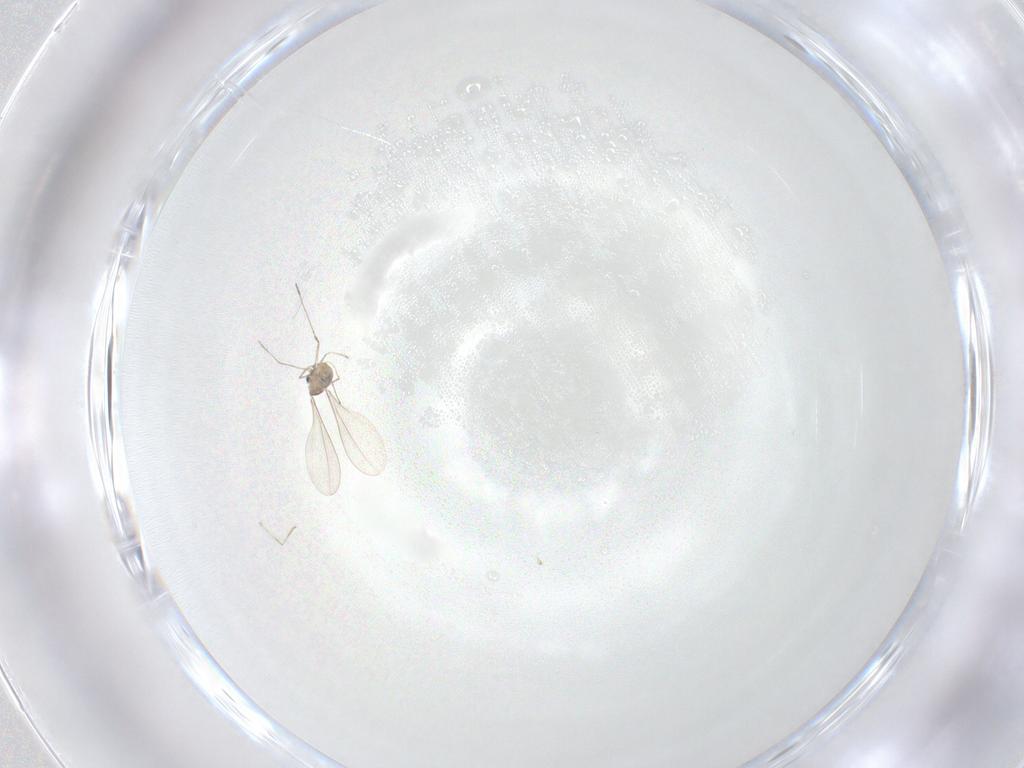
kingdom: Animalia
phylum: Arthropoda
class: Insecta
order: Diptera
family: Cecidomyiidae
